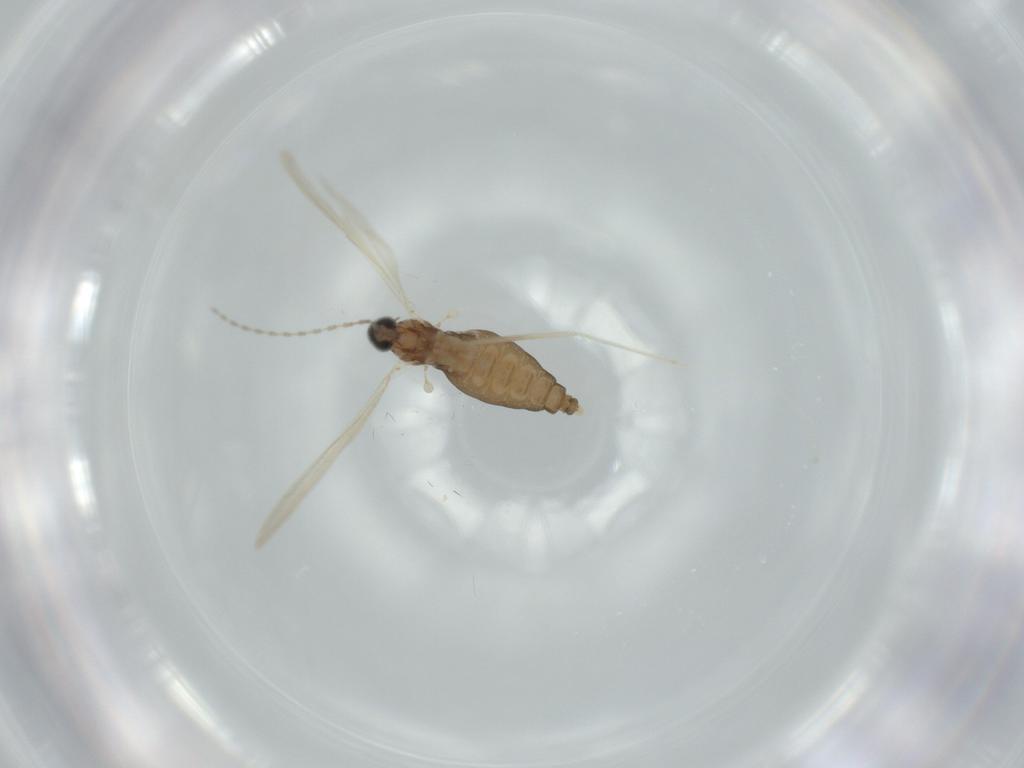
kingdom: Animalia
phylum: Arthropoda
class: Insecta
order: Diptera
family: Cecidomyiidae
